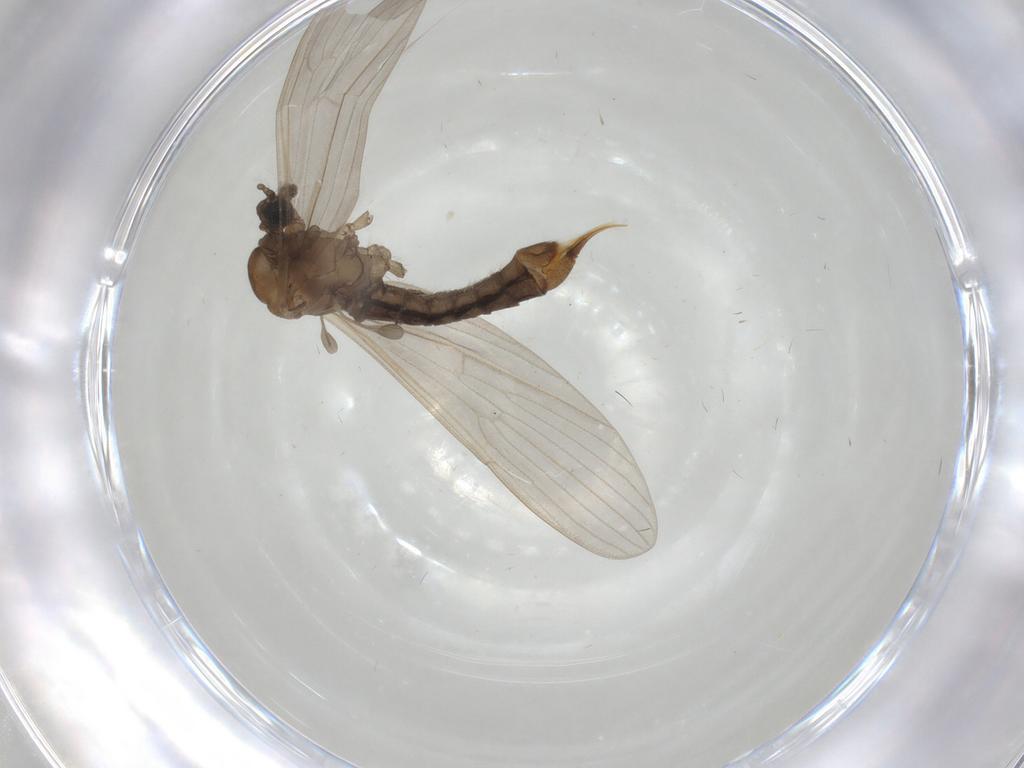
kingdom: Animalia
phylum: Arthropoda
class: Insecta
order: Diptera
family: Limoniidae
